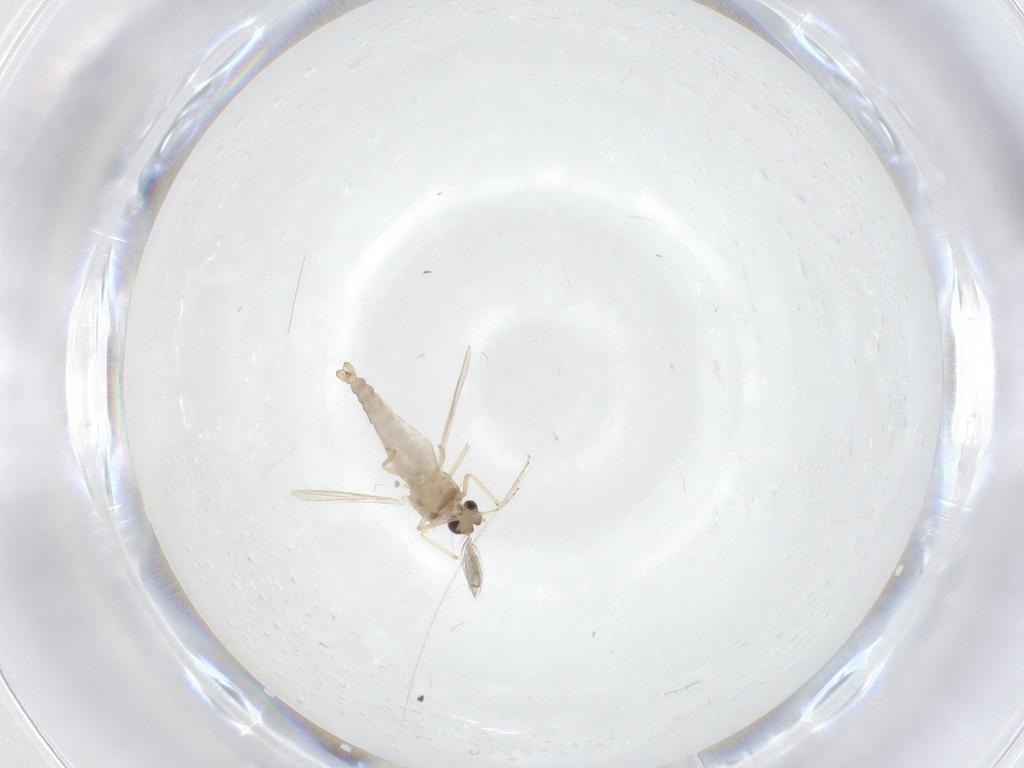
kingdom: Animalia
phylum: Arthropoda
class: Insecta
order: Diptera
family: Ceratopogonidae
